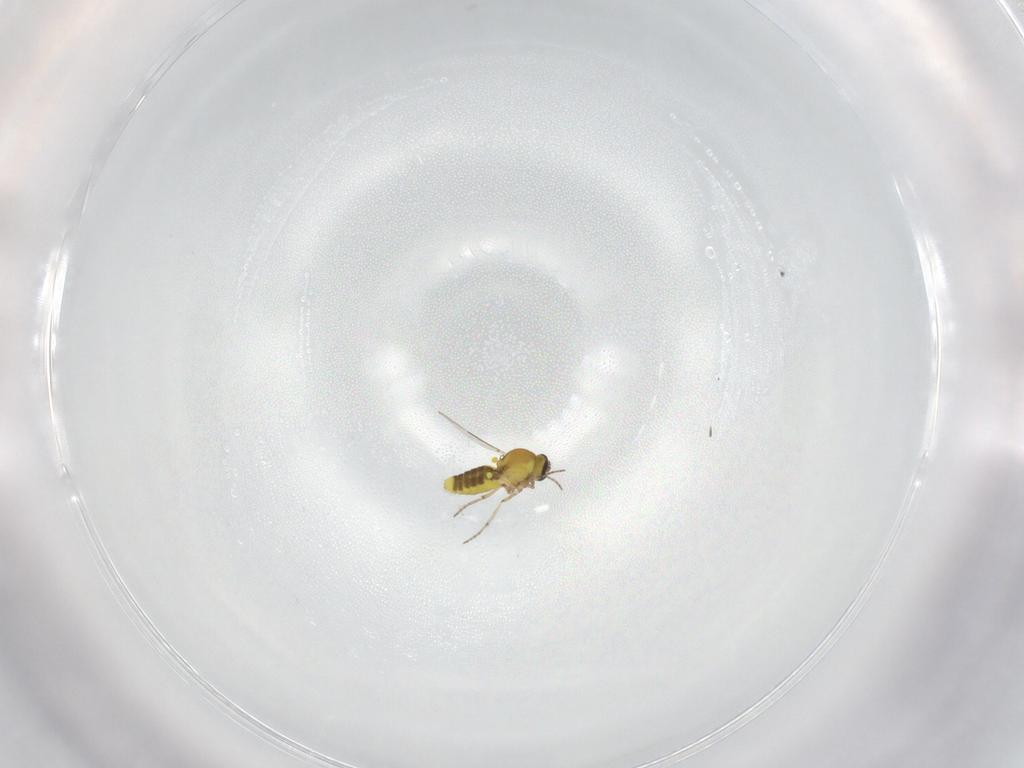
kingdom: Animalia
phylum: Arthropoda
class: Insecta
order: Diptera
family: Ceratopogonidae
